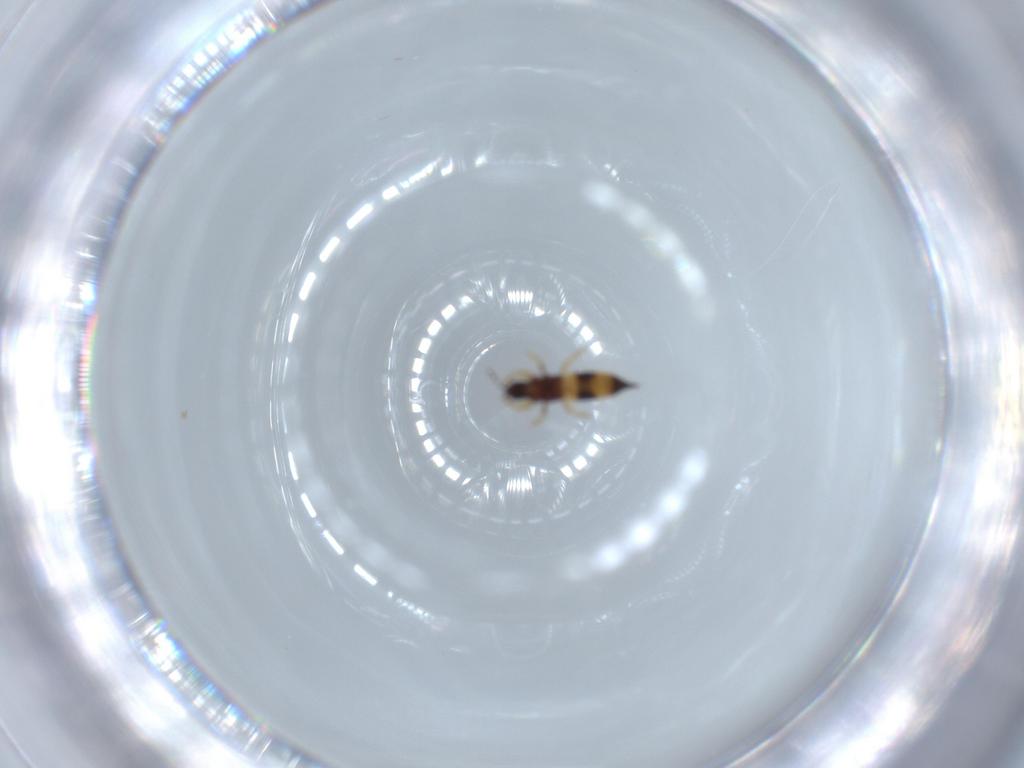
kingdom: Animalia
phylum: Arthropoda
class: Insecta
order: Thysanoptera
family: Phlaeothripidae
